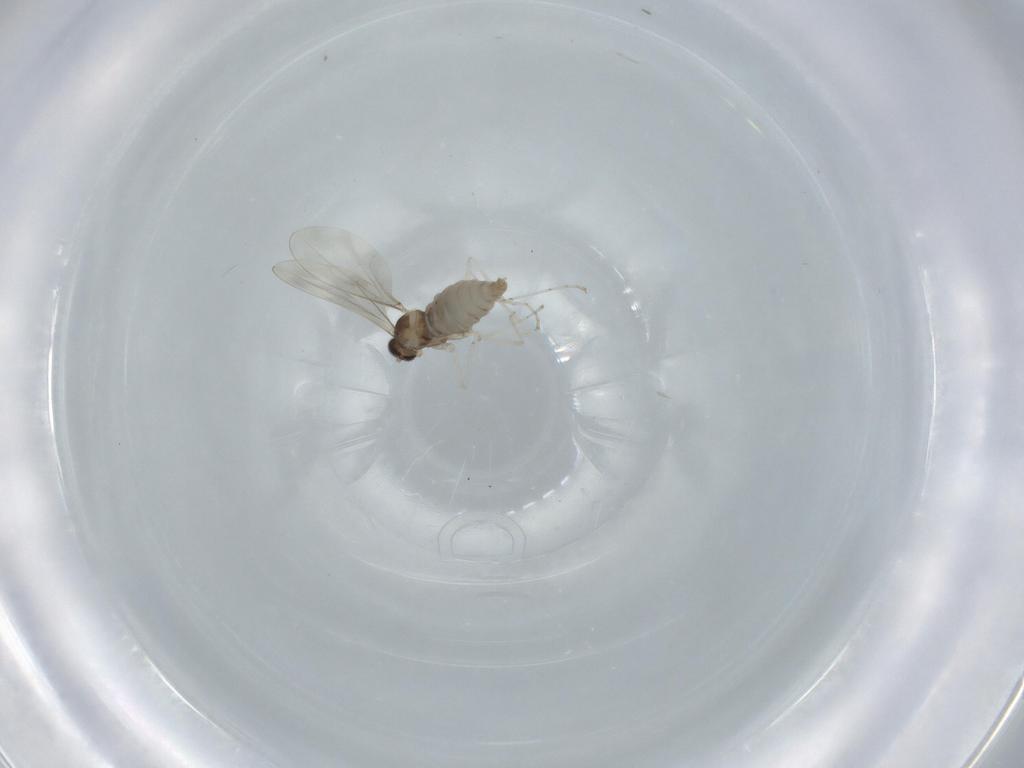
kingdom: Animalia
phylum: Arthropoda
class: Insecta
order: Diptera
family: Cecidomyiidae
